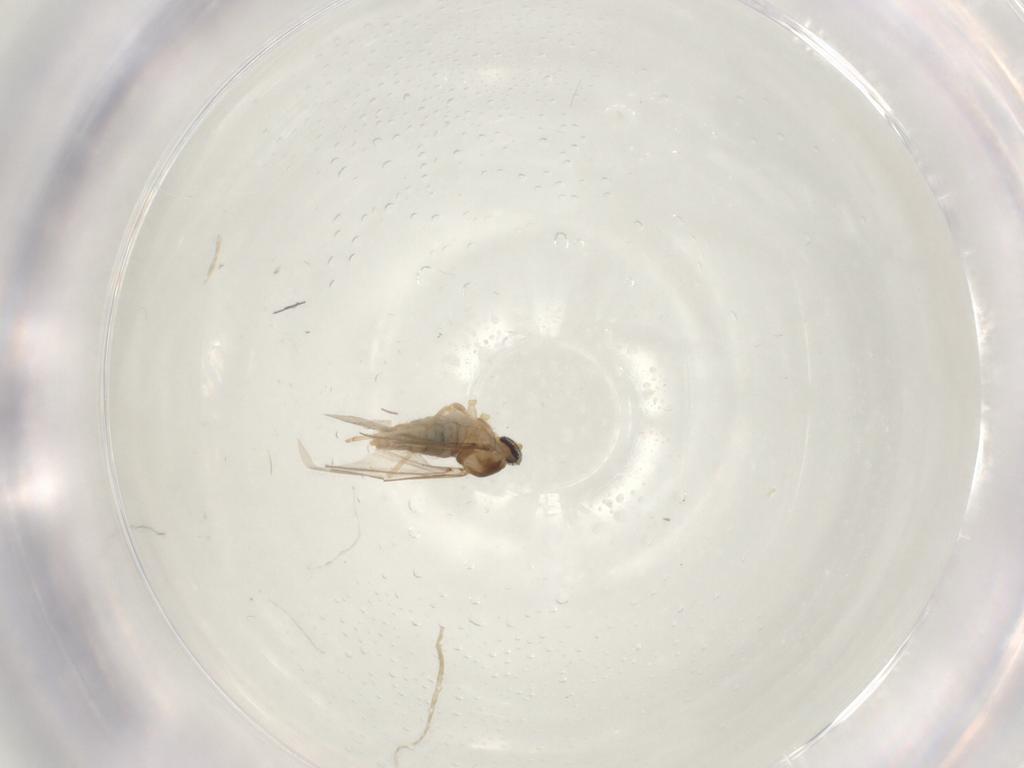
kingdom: Animalia
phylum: Arthropoda
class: Insecta
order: Diptera
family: Cecidomyiidae
